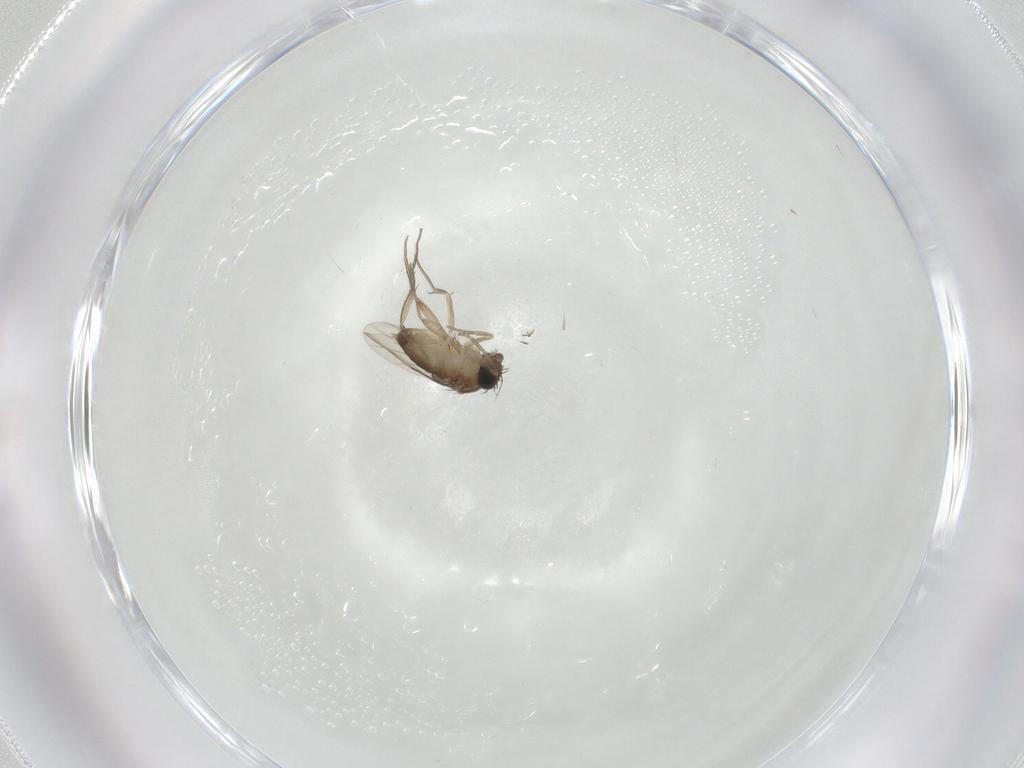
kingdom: Animalia
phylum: Arthropoda
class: Insecta
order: Diptera
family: Phoridae
